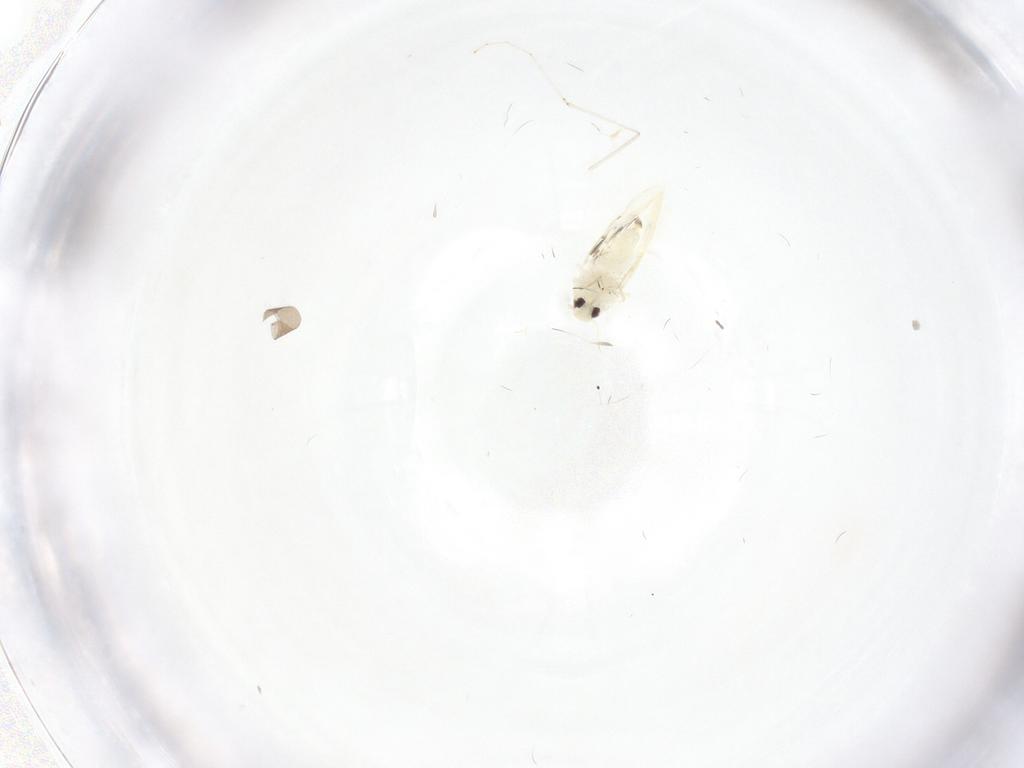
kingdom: Animalia
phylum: Arthropoda
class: Insecta
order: Hemiptera
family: Aleyrodidae
